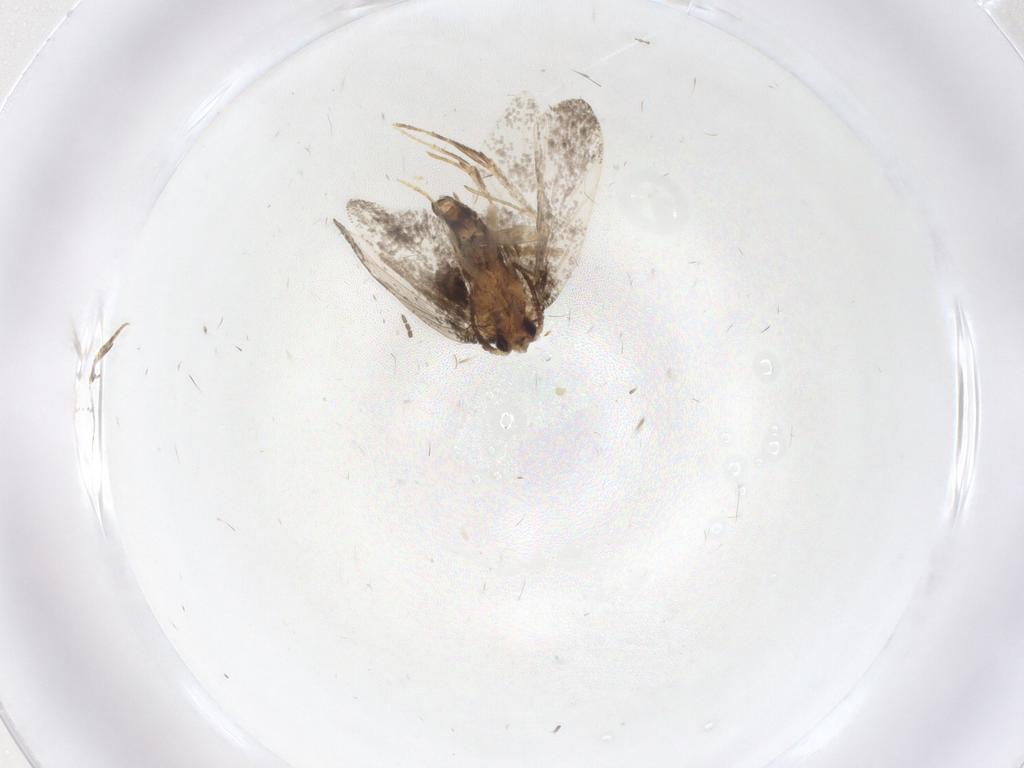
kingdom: Animalia
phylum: Arthropoda
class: Insecta
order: Lepidoptera
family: Psychidae
